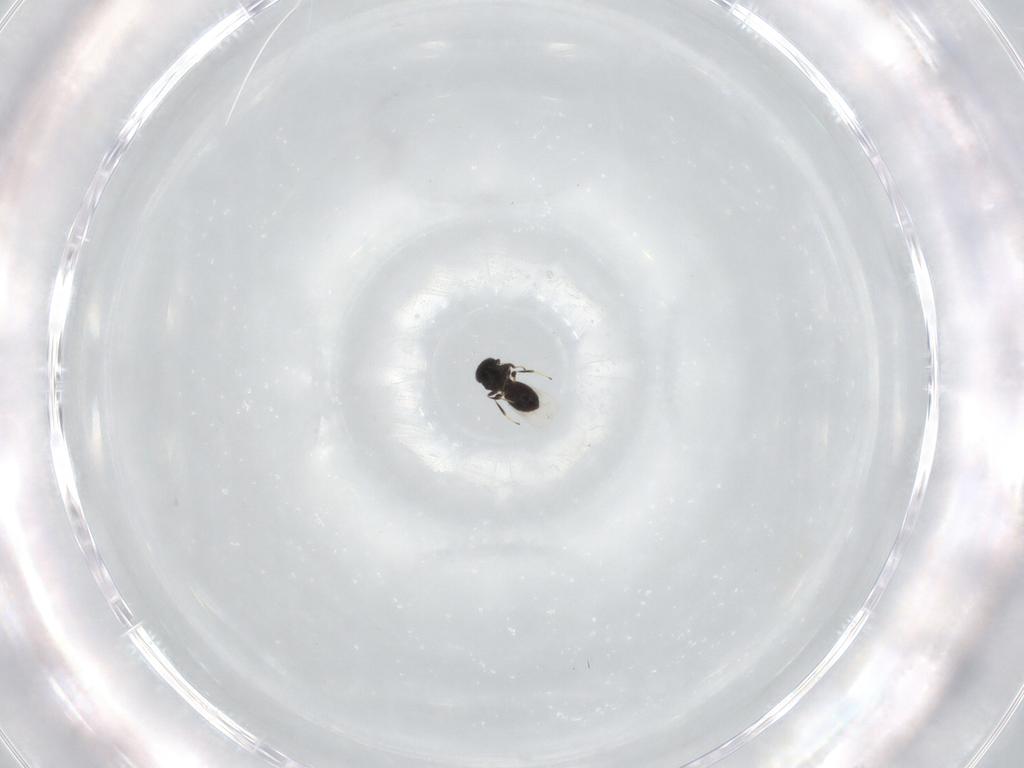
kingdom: Animalia
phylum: Arthropoda
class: Insecta
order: Hymenoptera
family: Platygastridae
